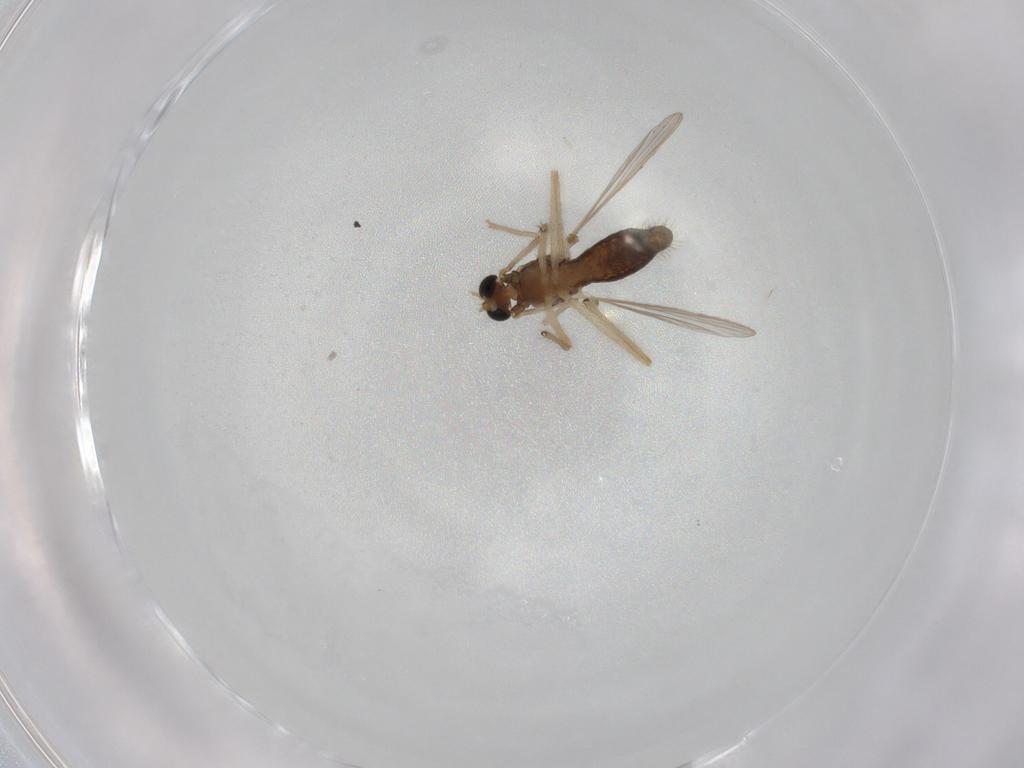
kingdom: Animalia
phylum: Arthropoda
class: Insecta
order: Diptera
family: Chironomidae
